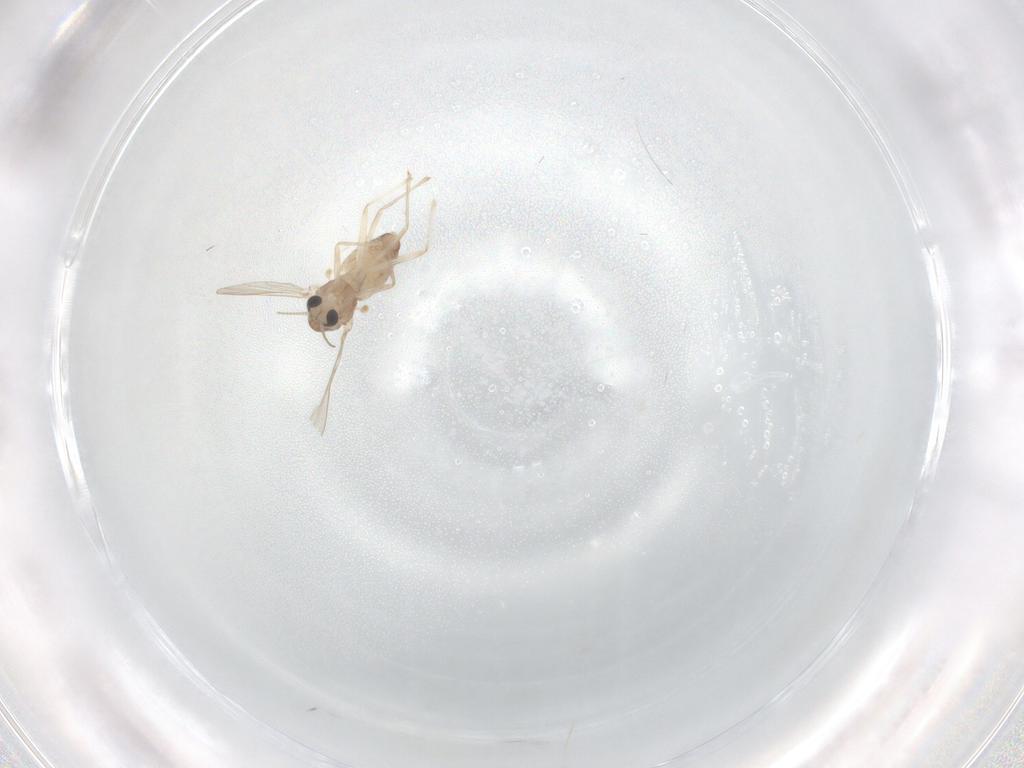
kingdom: Animalia
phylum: Arthropoda
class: Insecta
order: Diptera
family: Chironomidae
